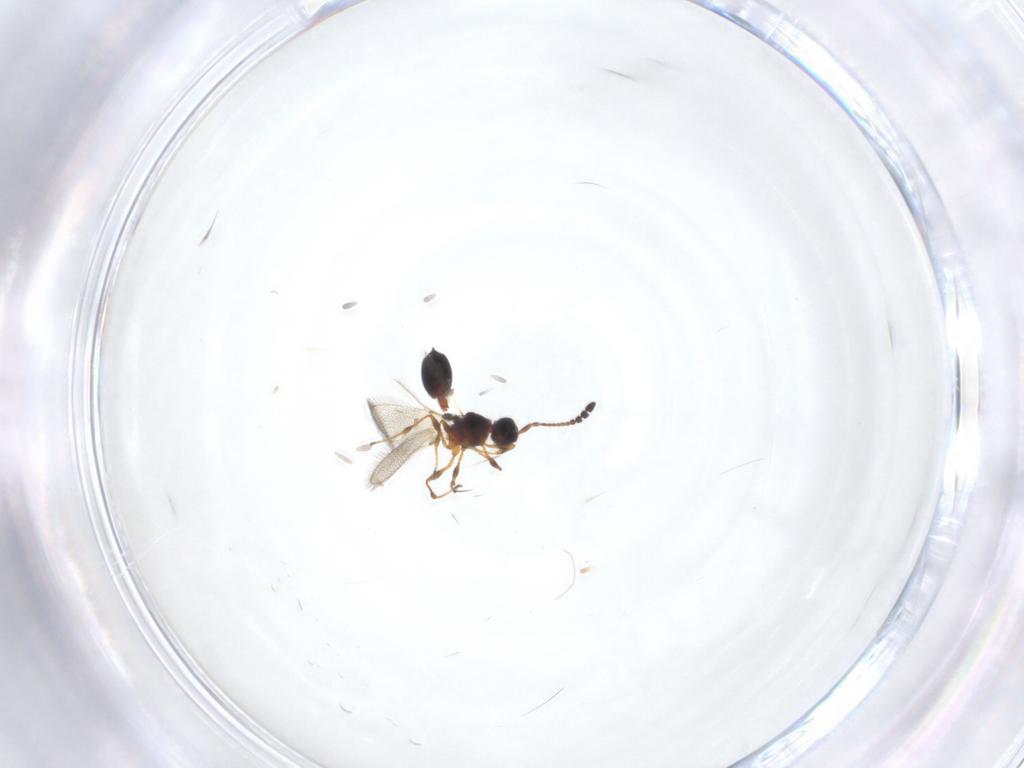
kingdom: Animalia
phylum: Arthropoda
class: Insecta
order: Hymenoptera
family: Diapriidae
